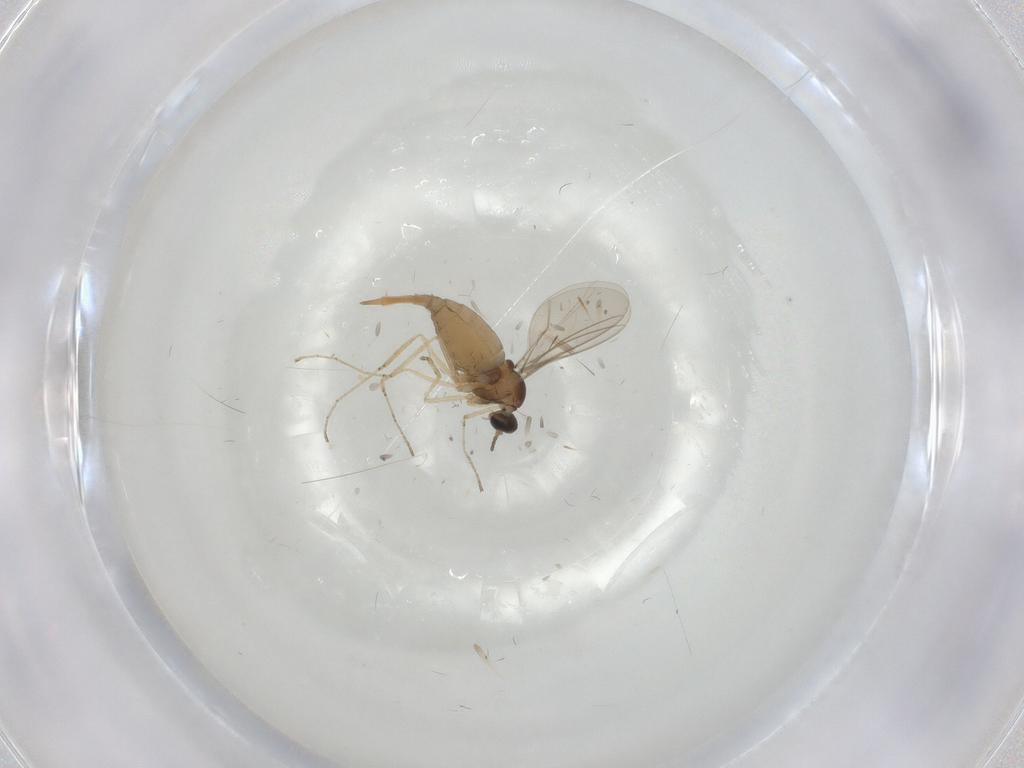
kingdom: Animalia
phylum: Arthropoda
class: Insecta
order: Diptera
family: Cecidomyiidae
